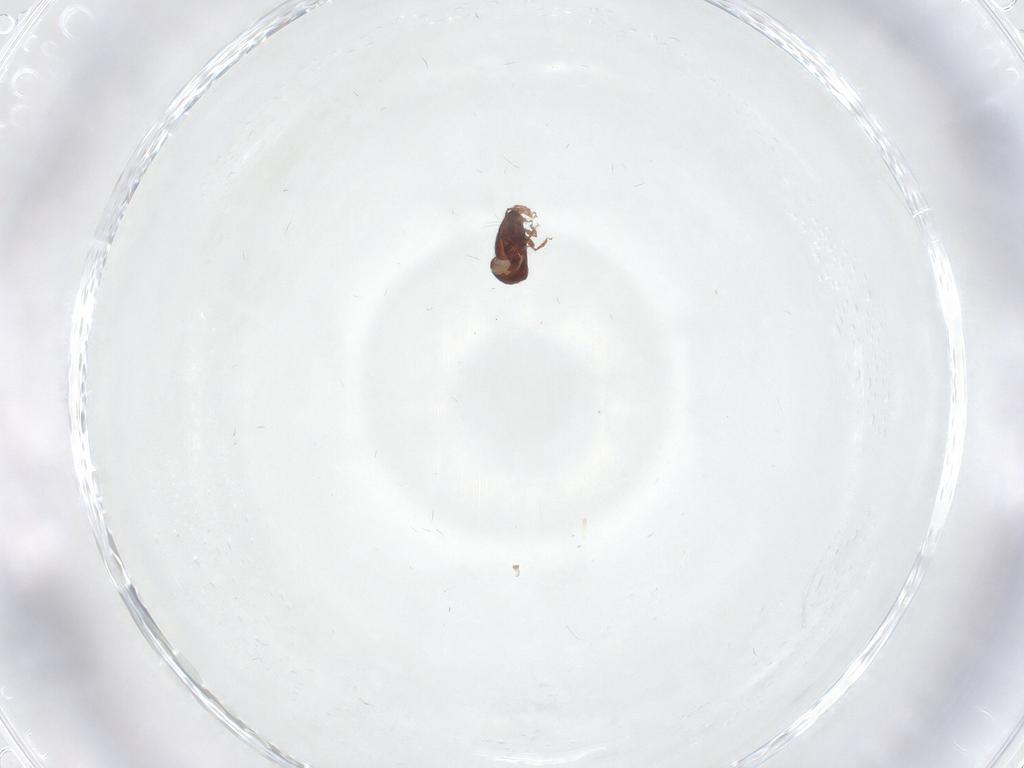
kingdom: Animalia
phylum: Arthropoda
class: Arachnida
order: Sarcoptiformes
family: Achipteriidae
